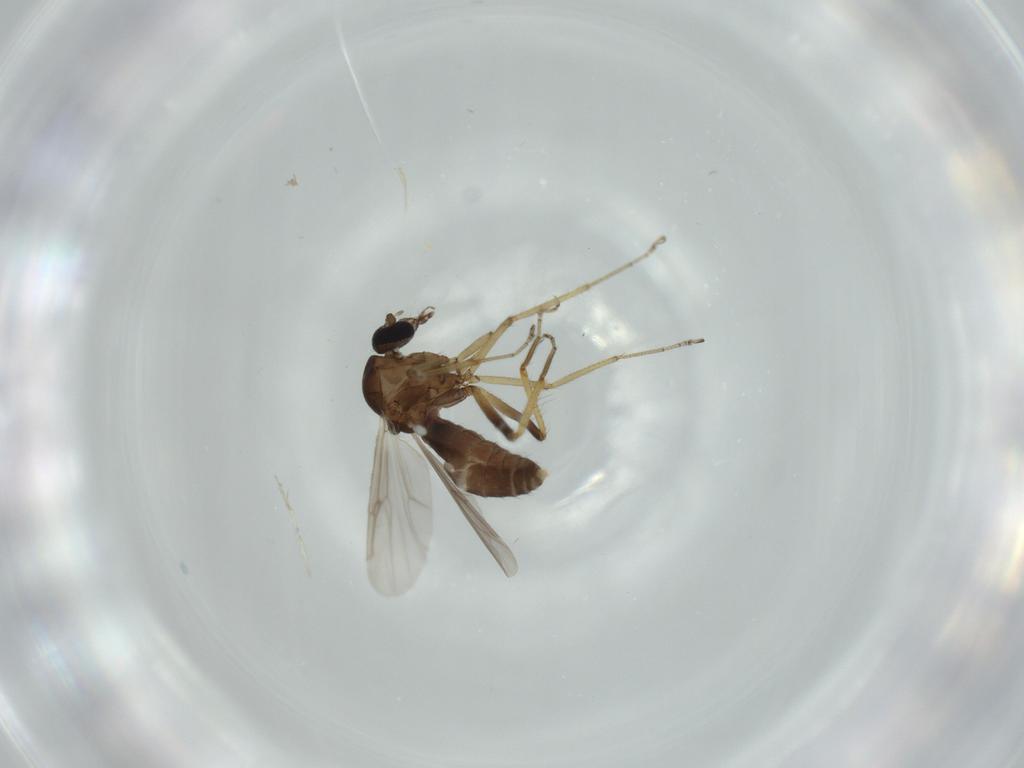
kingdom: Animalia
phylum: Arthropoda
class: Insecta
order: Diptera
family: Ceratopogonidae
